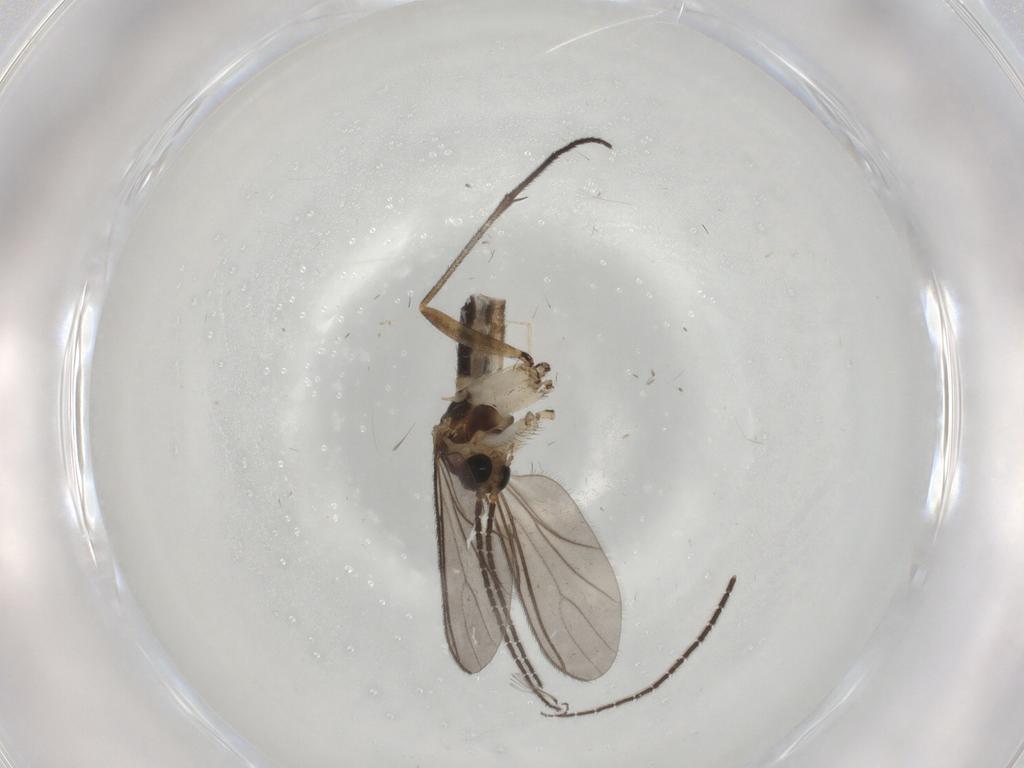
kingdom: Animalia
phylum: Arthropoda
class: Insecta
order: Diptera
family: Sciaridae
